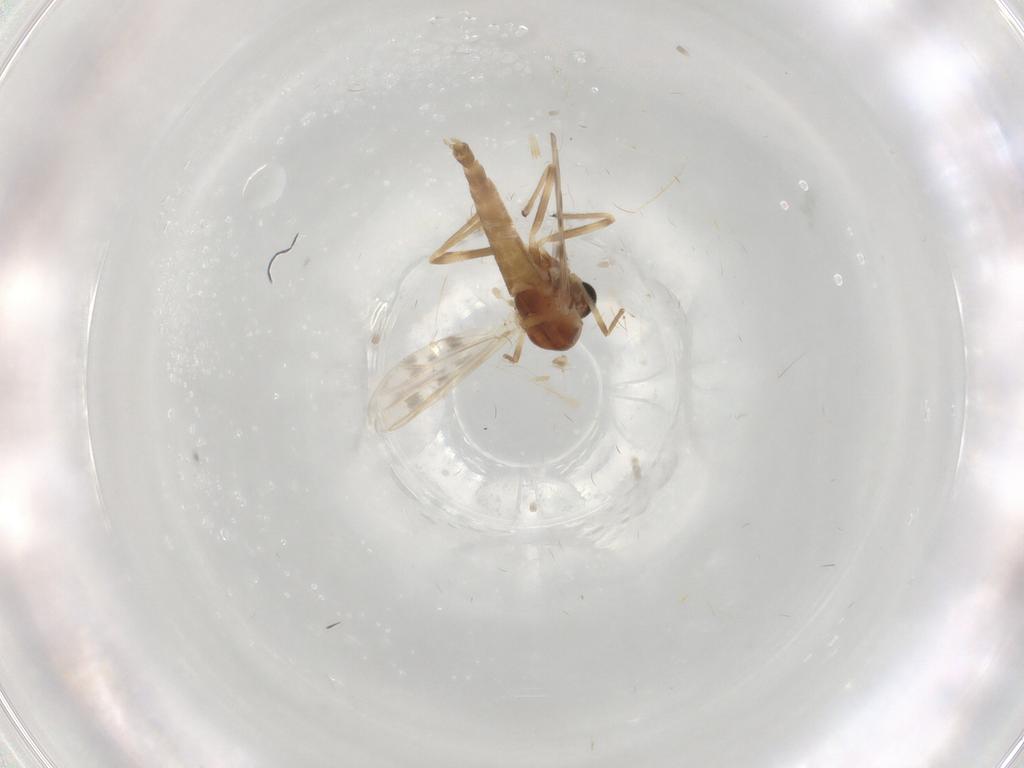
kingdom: Animalia
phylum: Arthropoda
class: Insecta
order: Diptera
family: Chironomidae
